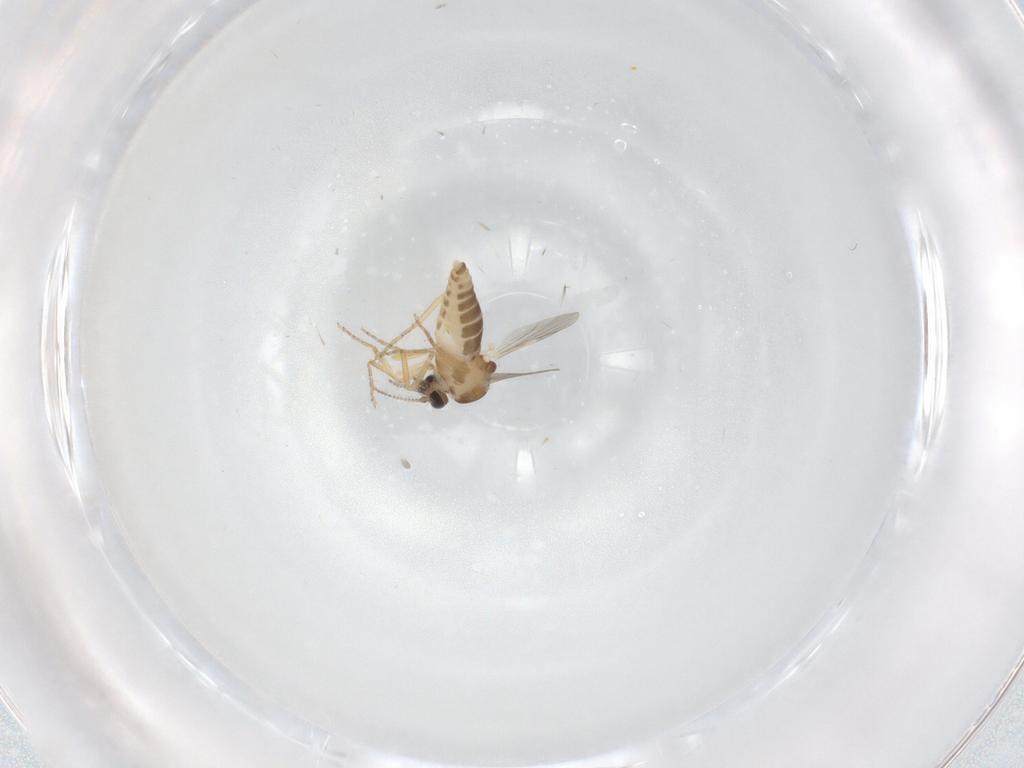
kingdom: Animalia
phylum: Arthropoda
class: Insecta
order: Diptera
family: Ceratopogonidae
